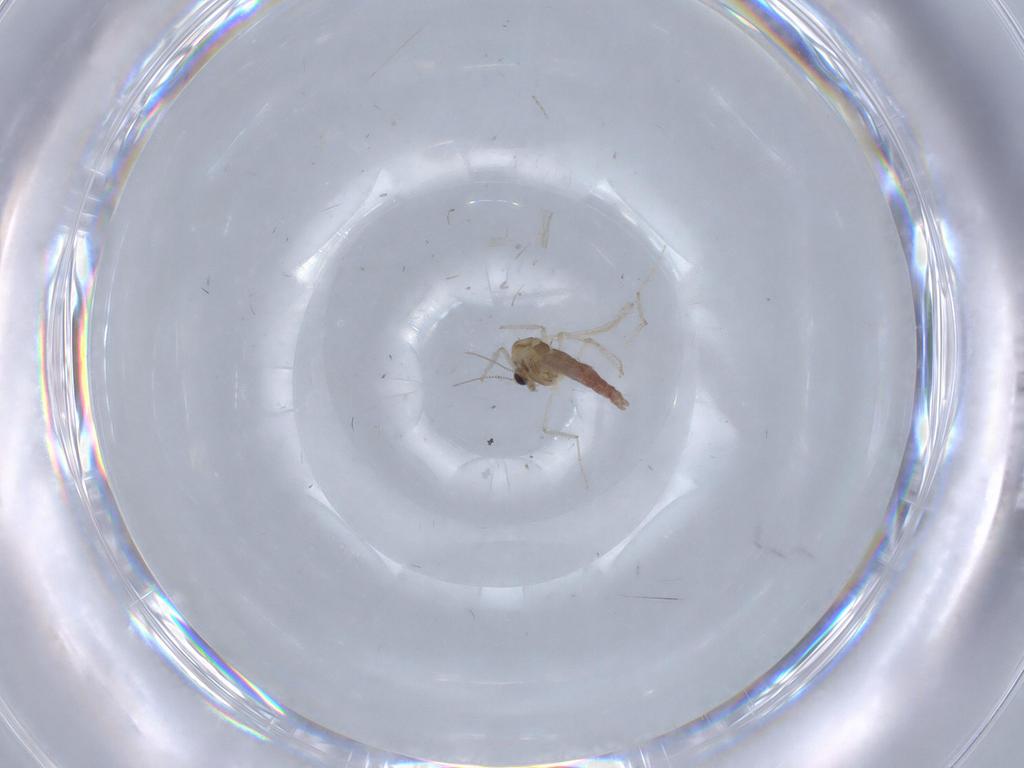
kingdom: Animalia
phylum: Arthropoda
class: Insecta
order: Diptera
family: Chironomidae
